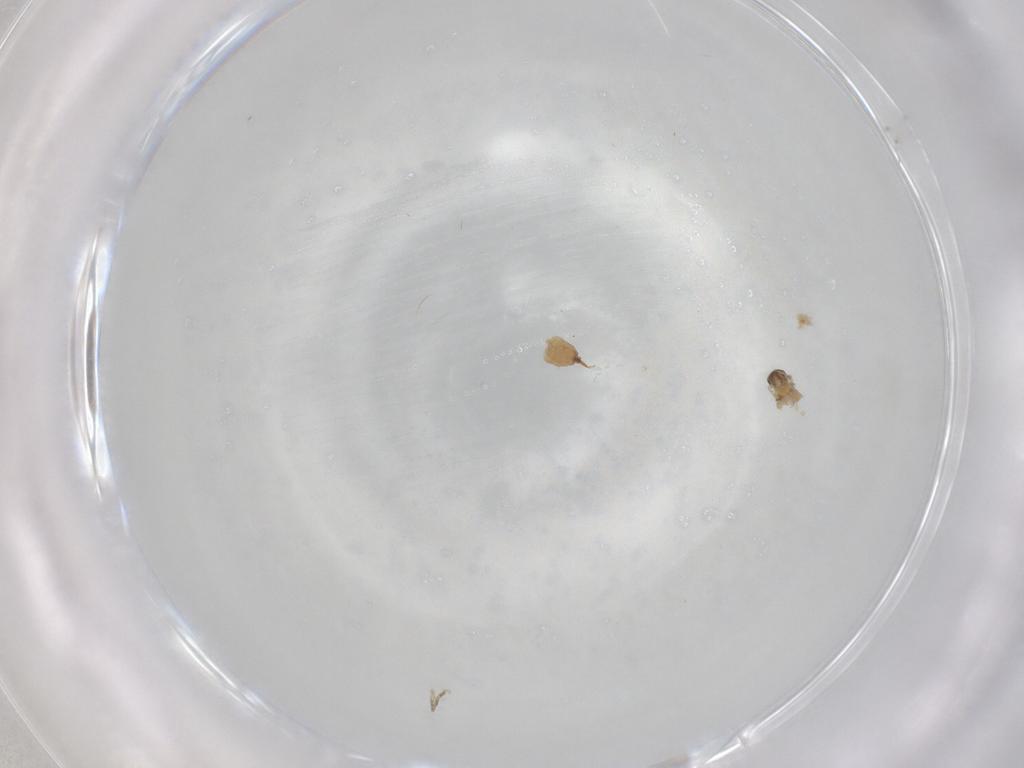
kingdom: Animalia
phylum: Arthropoda
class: Insecta
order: Diptera
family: Cecidomyiidae
